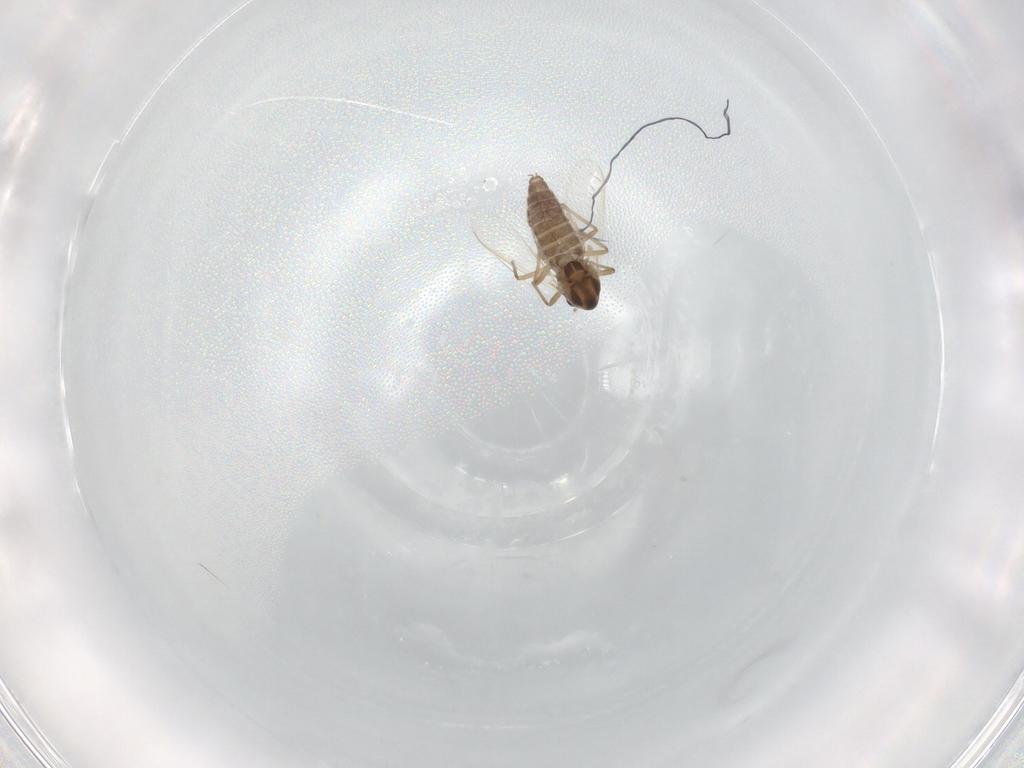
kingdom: Animalia
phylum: Arthropoda
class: Insecta
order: Diptera
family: Chironomidae
